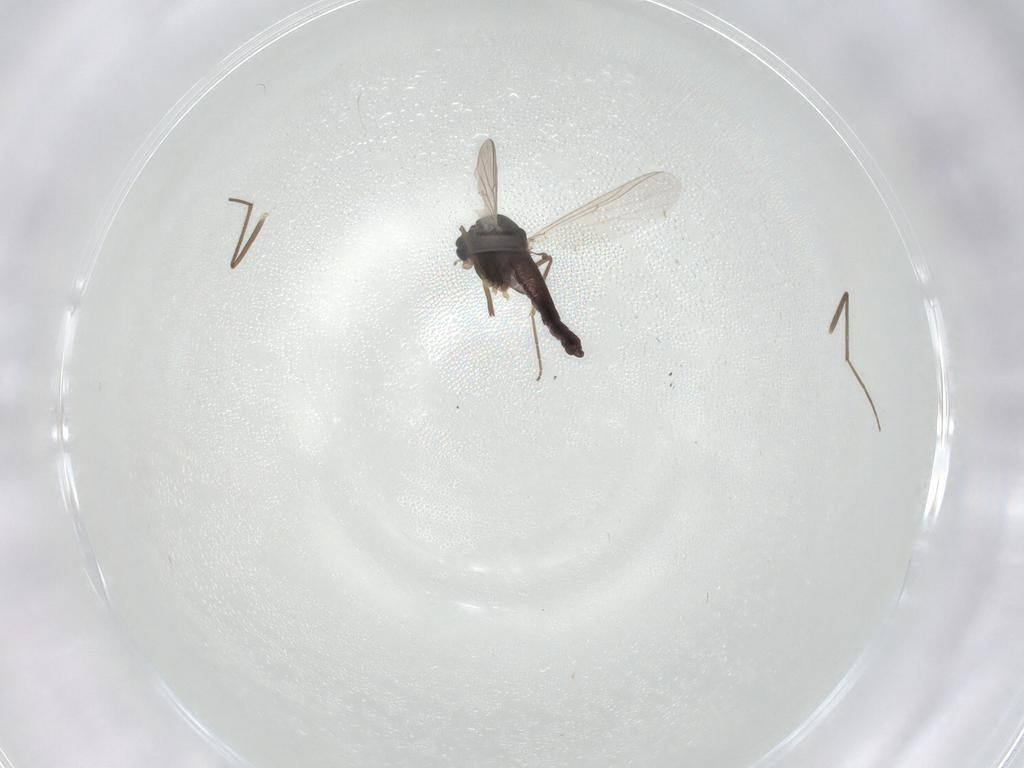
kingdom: Animalia
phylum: Arthropoda
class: Insecta
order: Diptera
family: Chironomidae
